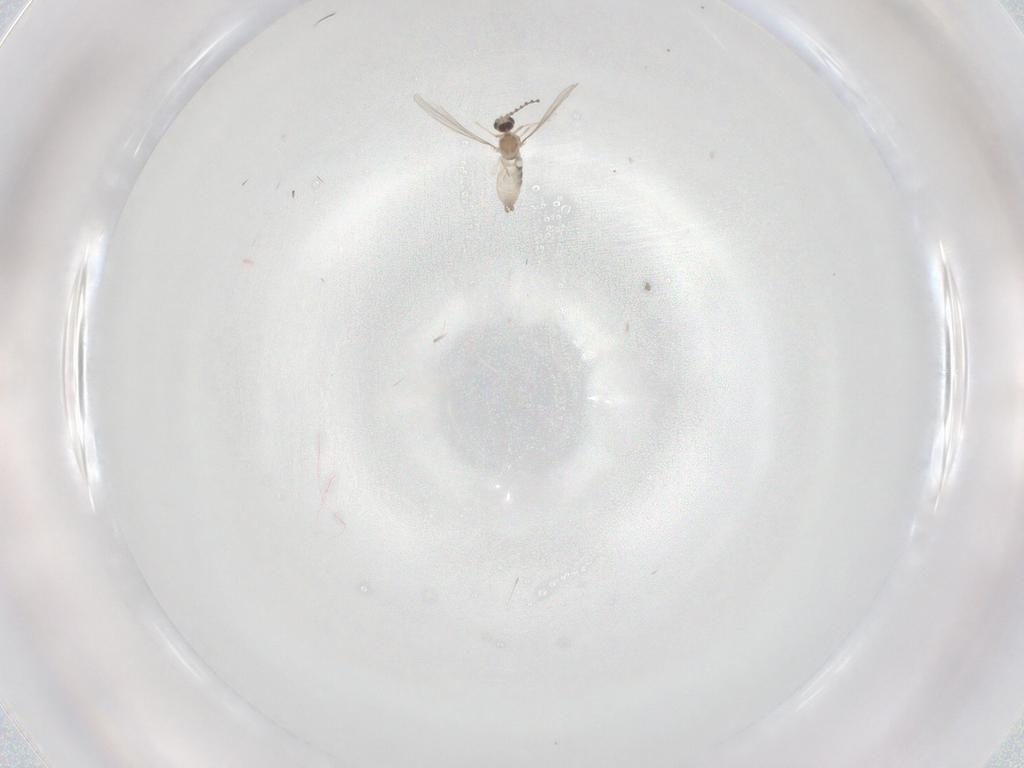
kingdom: Animalia
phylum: Arthropoda
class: Insecta
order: Diptera
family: Cecidomyiidae
